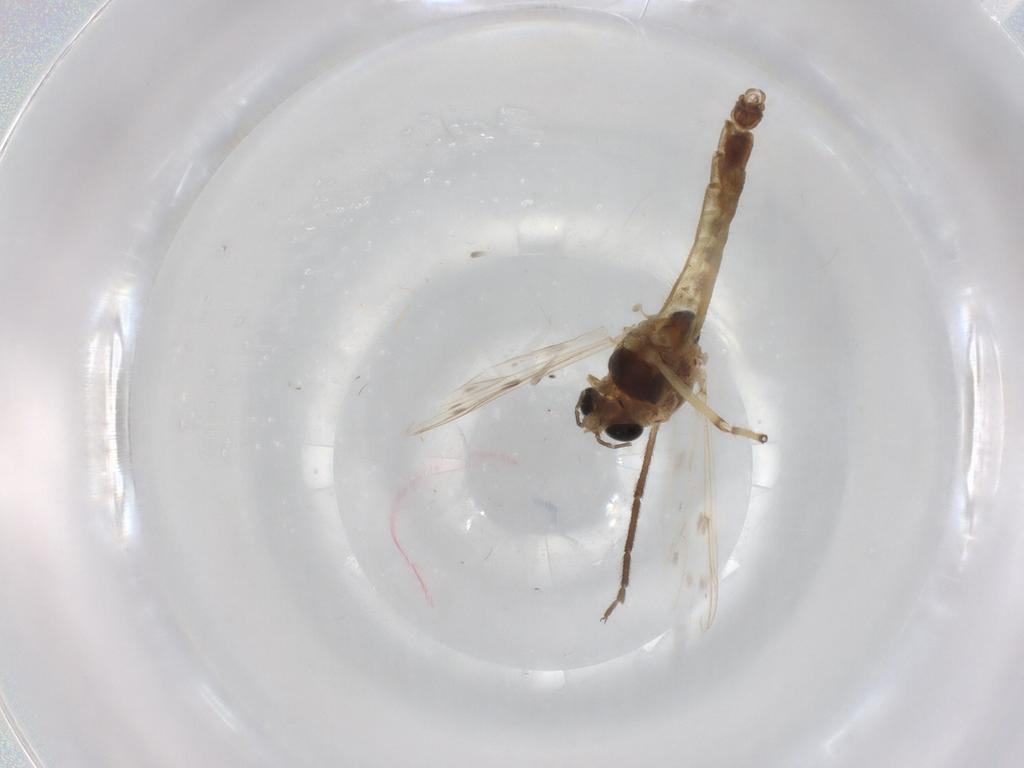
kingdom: Animalia
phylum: Arthropoda
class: Insecta
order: Diptera
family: Chironomidae
